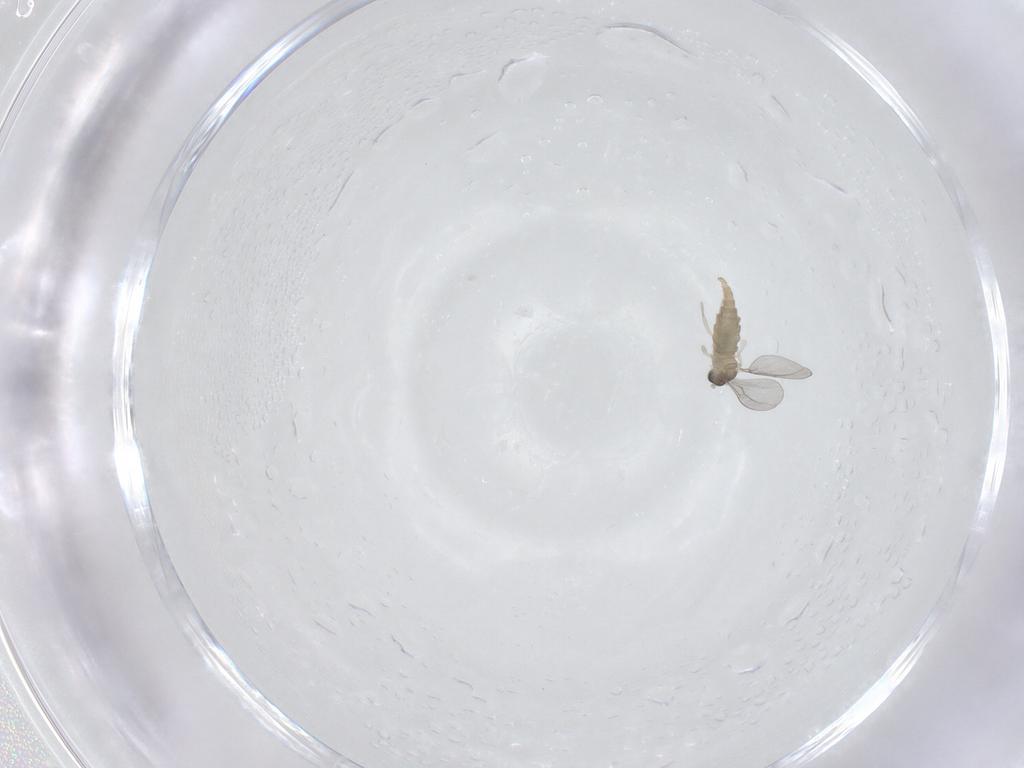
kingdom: Animalia
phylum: Arthropoda
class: Insecta
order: Diptera
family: Cecidomyiidae
